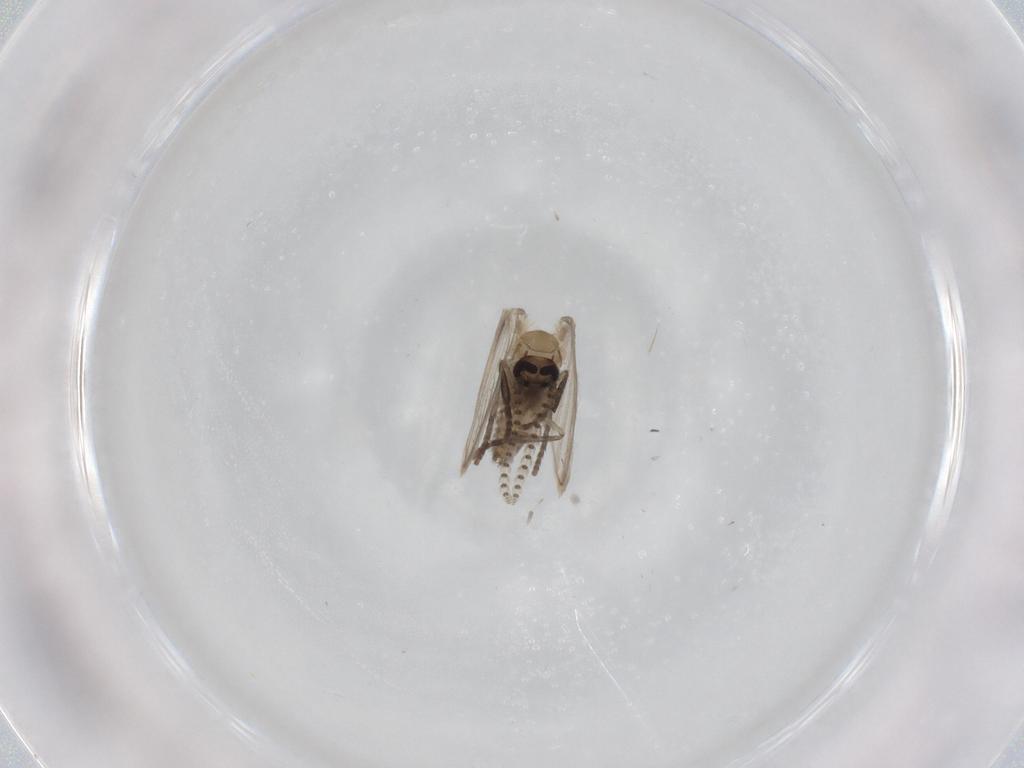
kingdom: Animalia
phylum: Arthropoda
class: Insecta
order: Diptera
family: Psychodidae
